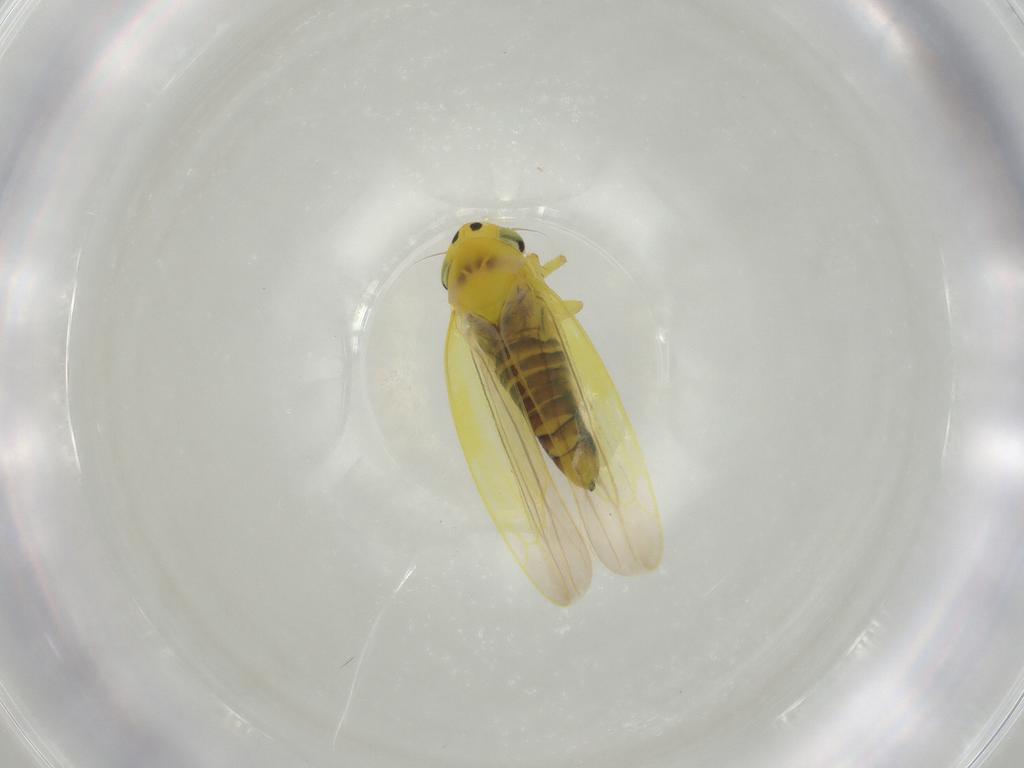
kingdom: Animalia
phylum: Arthropoda
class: Insecta
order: Hemiptera
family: Cicadellidae
